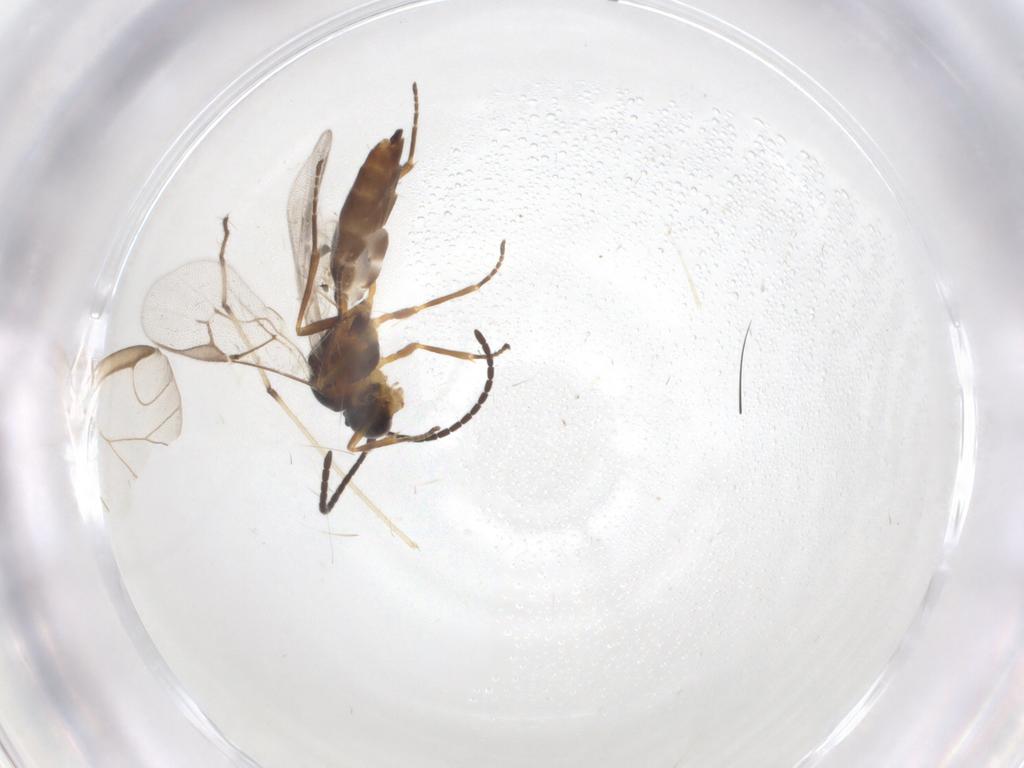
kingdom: Animalia
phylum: Arthropoda
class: Insecta
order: Hymenoptera
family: Braconidae
